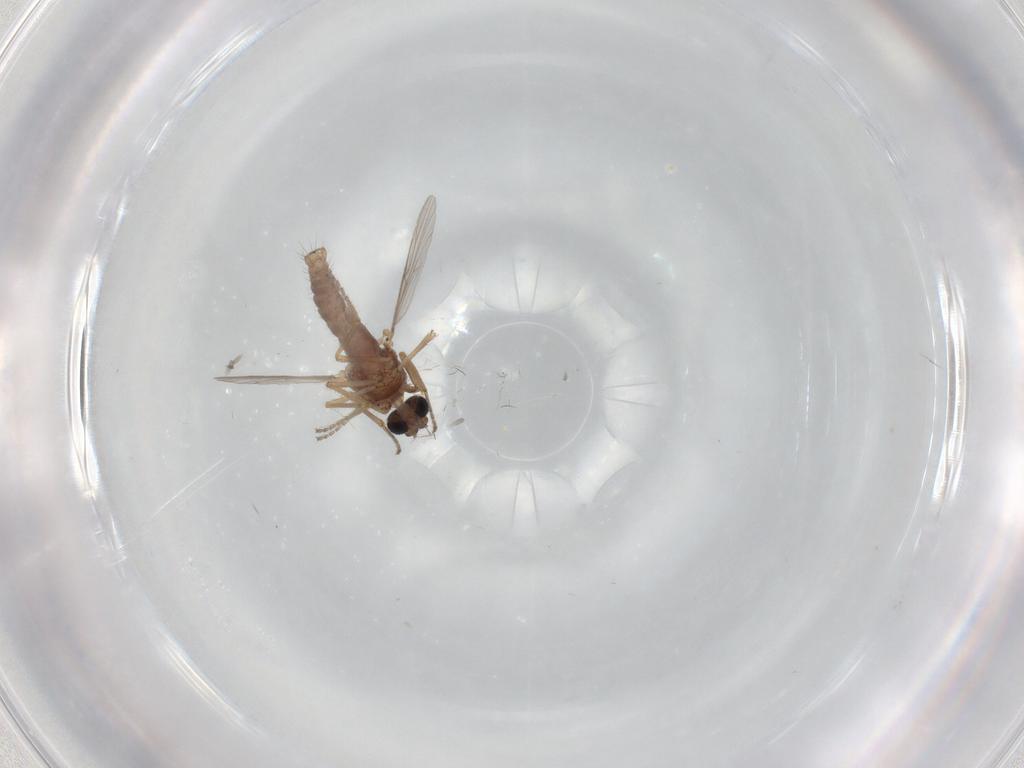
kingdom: Animalia
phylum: Arthropoda
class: Insecta
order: Diptera
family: Ceratopogonidae
